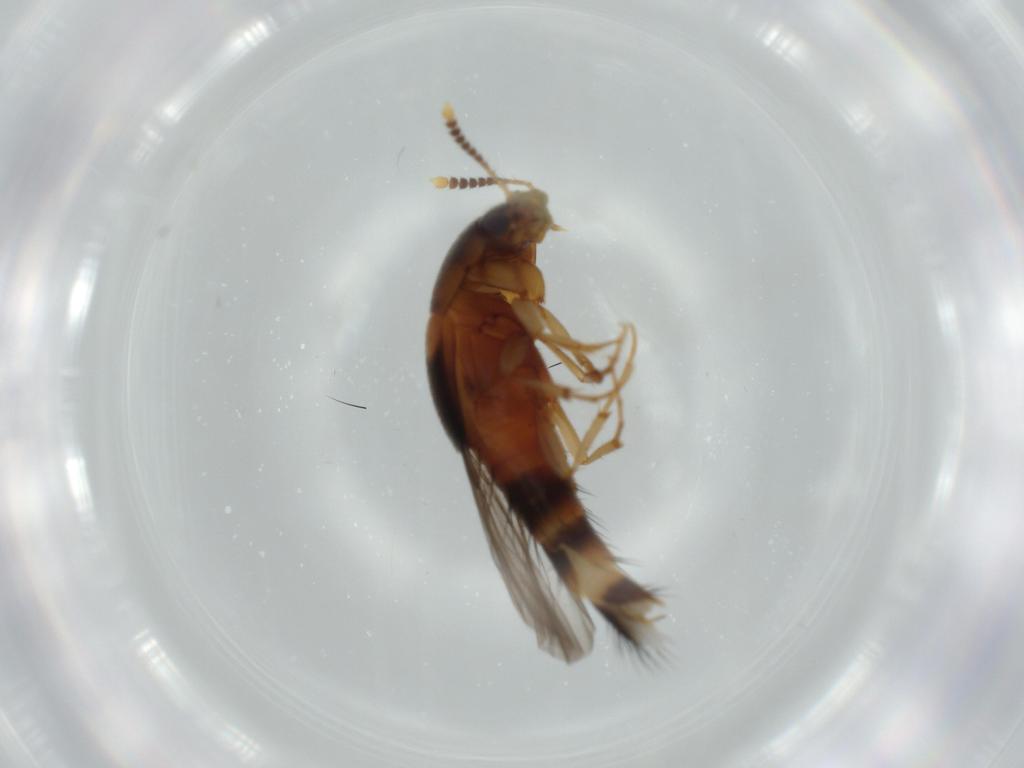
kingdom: Animalia
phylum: Arthropoda
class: Insecta
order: Coleoptera
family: Staphylinidae
